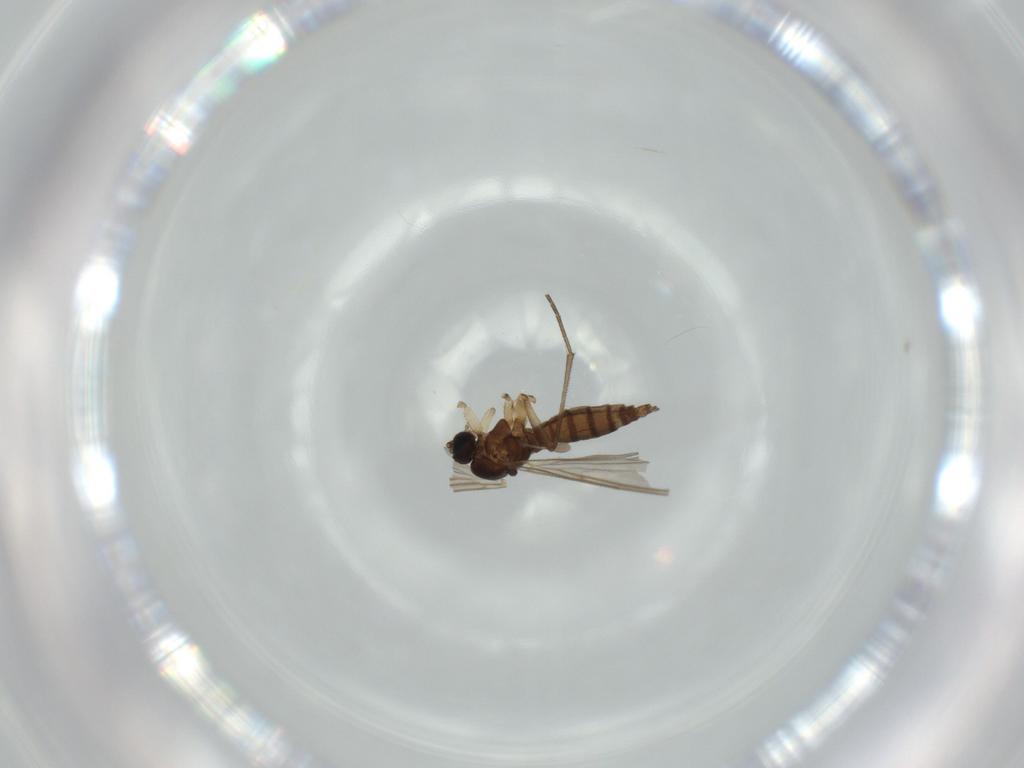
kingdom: Animalia
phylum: Arthropoda
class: Insecta
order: Diptera
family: Sciaridae
